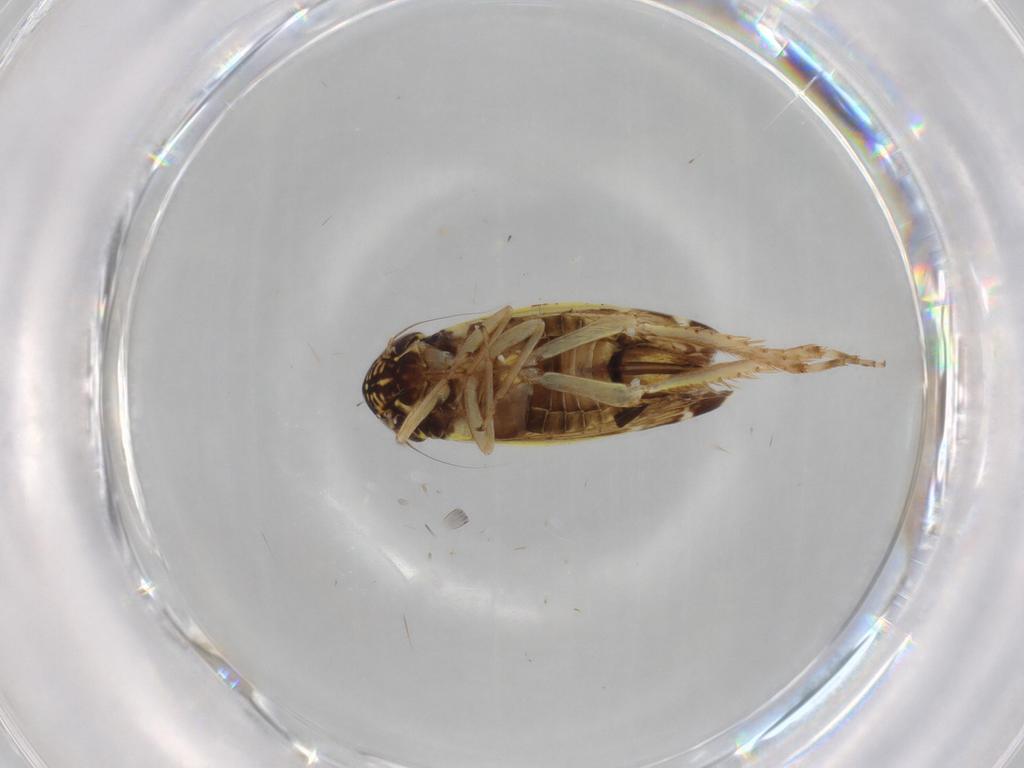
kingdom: Animalia
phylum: Arthropoda
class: Insecta
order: Hemiptera
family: Cicadellidae
